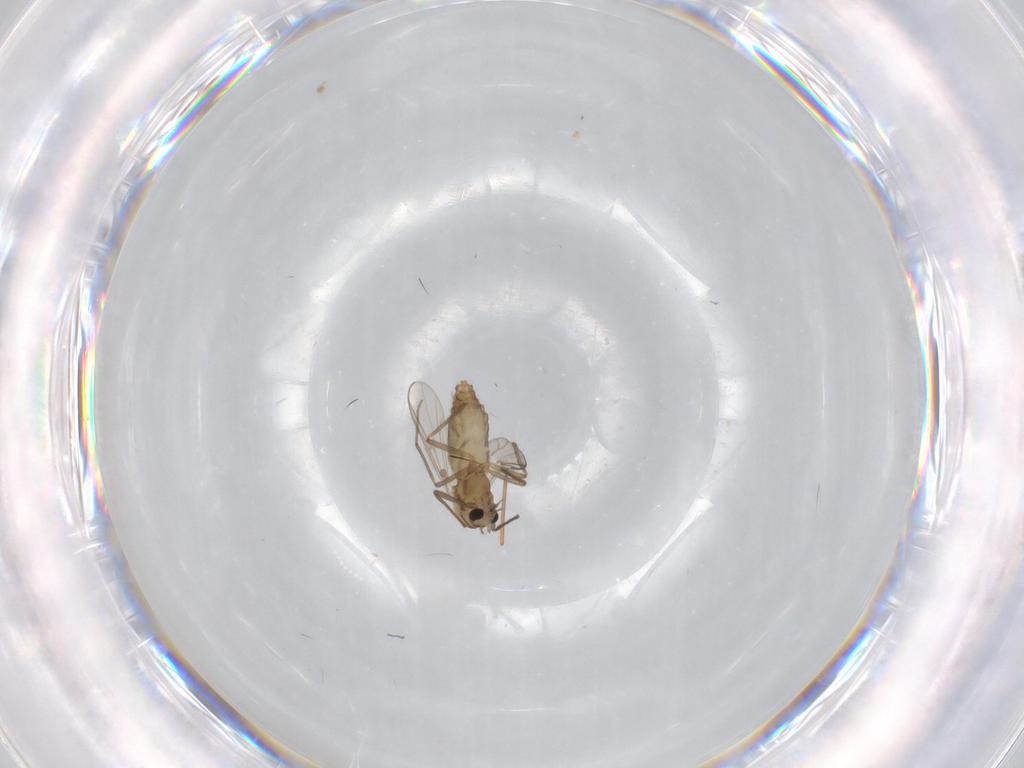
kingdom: Animalia
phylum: Arthropoda
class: Insecta
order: Diptera
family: Chironomidae
